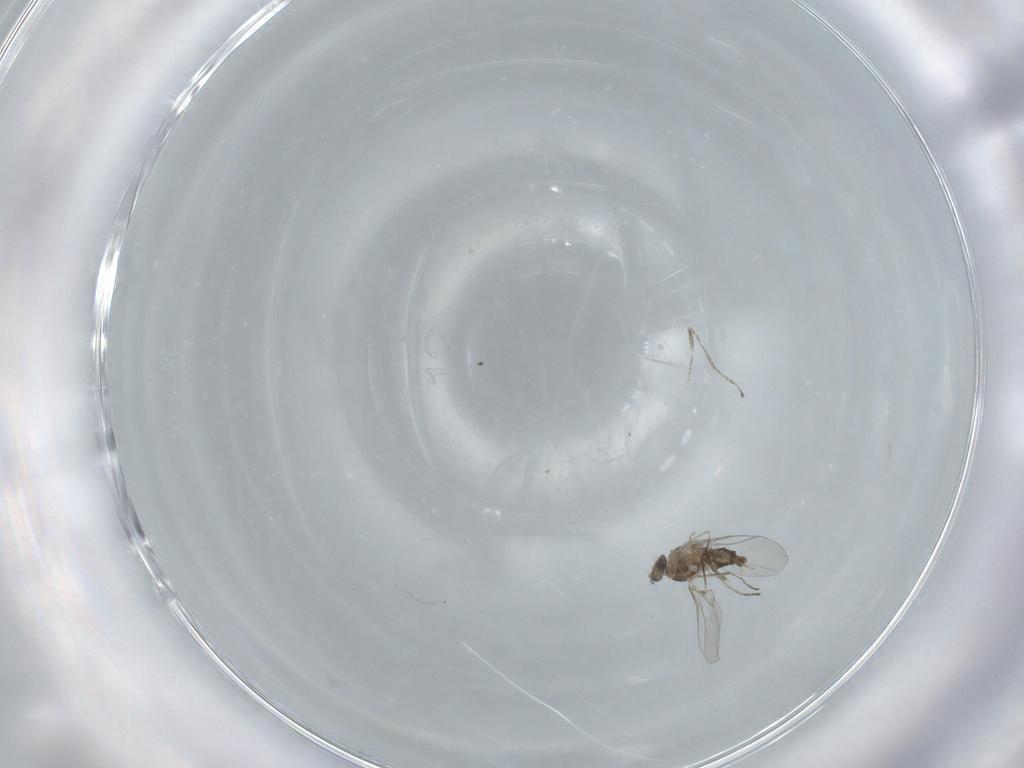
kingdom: Animalia
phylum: Arthropoda
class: Insecta
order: Diptera
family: Cecidomyiidae
